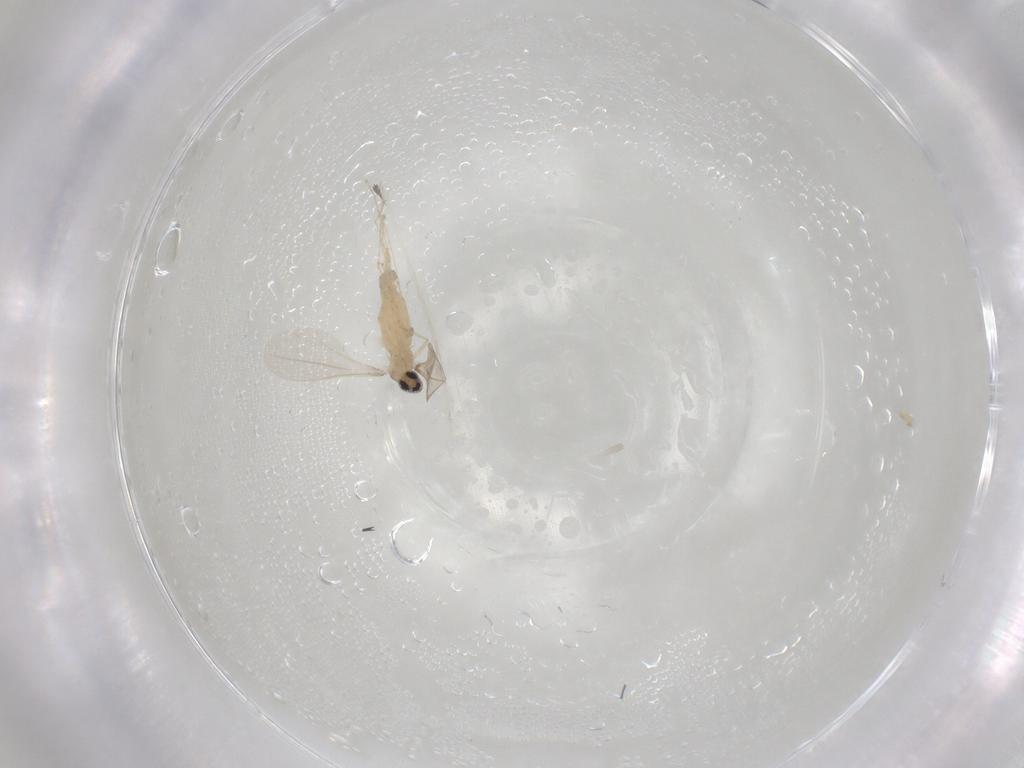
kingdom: Animalia
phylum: Arthropoda
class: Insecta
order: Diptera
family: Cecidomyiidae
